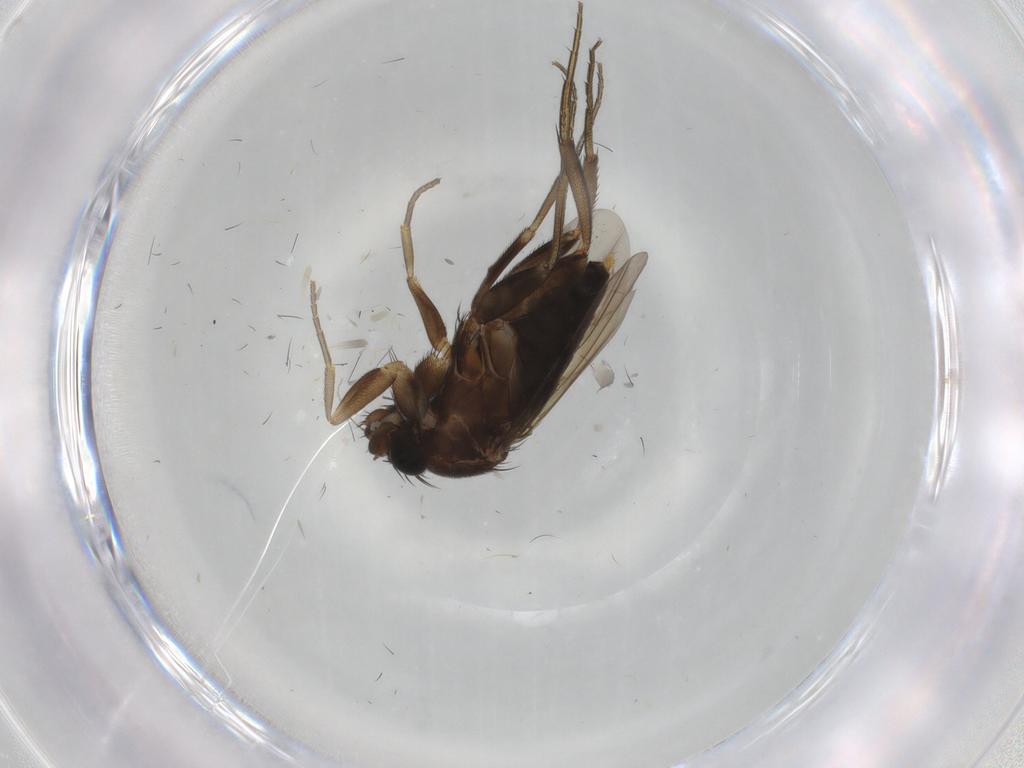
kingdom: Animalia
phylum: Arthropoda
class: Insecta
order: Diptera
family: Phoridae
